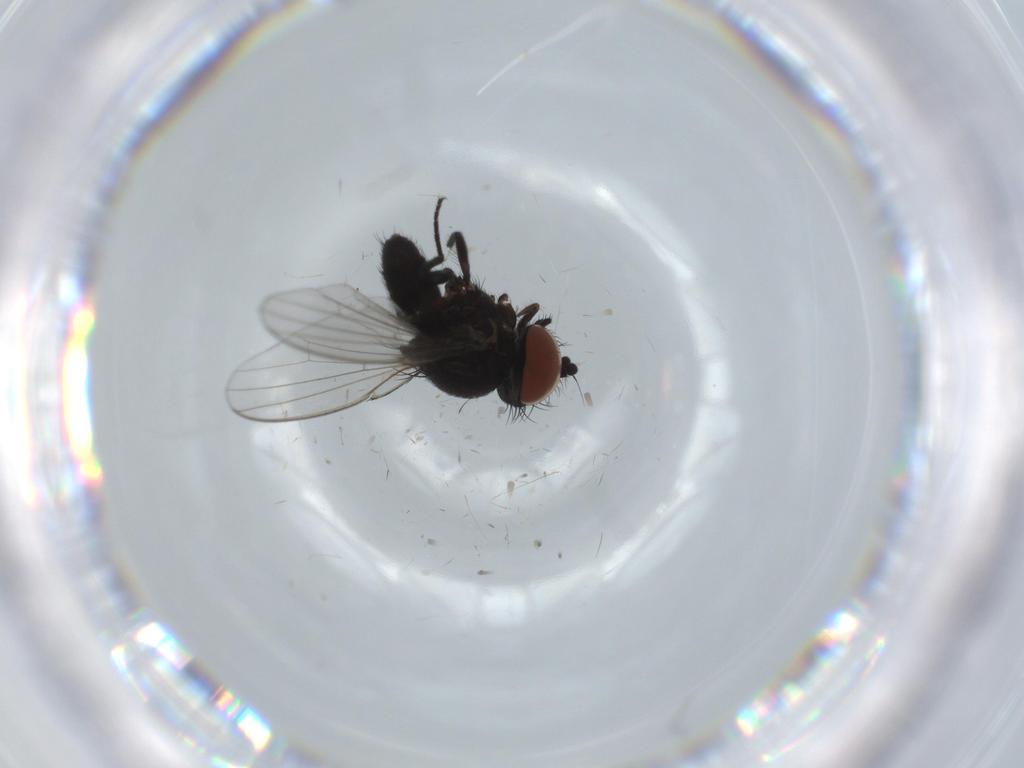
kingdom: Animalia
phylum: Arthropoda
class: Insecta
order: Diptera
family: Milichiidae
